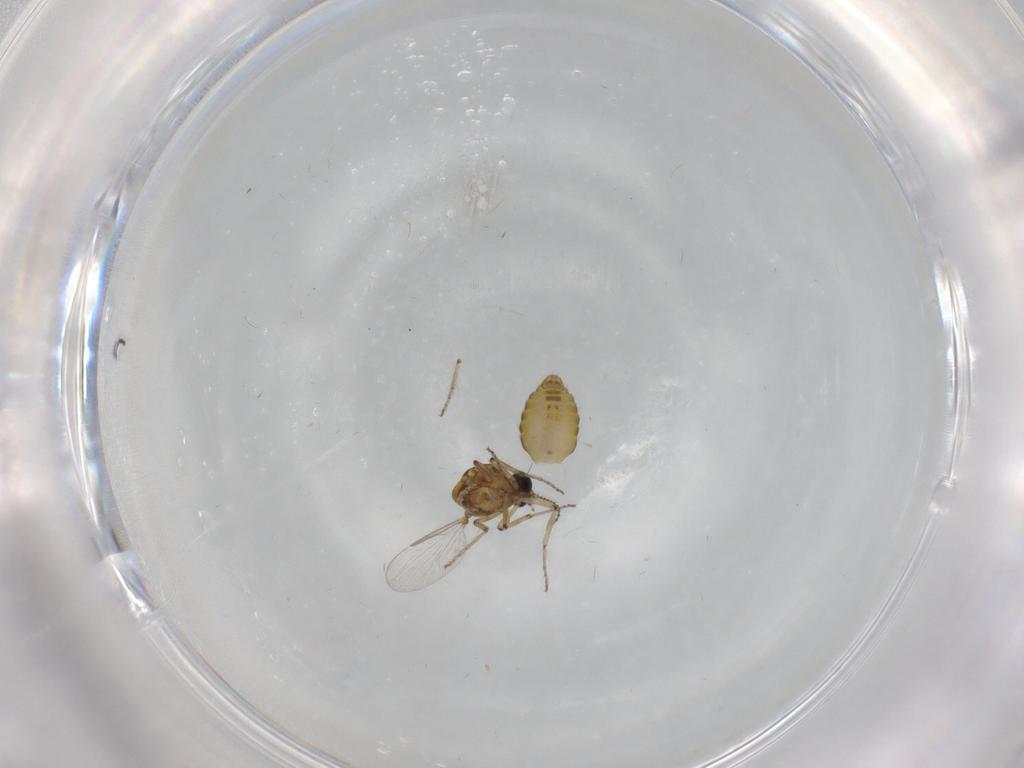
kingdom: Animalia
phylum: Arthropoda
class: Insecta
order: Diptera
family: Ceratopogonidae
